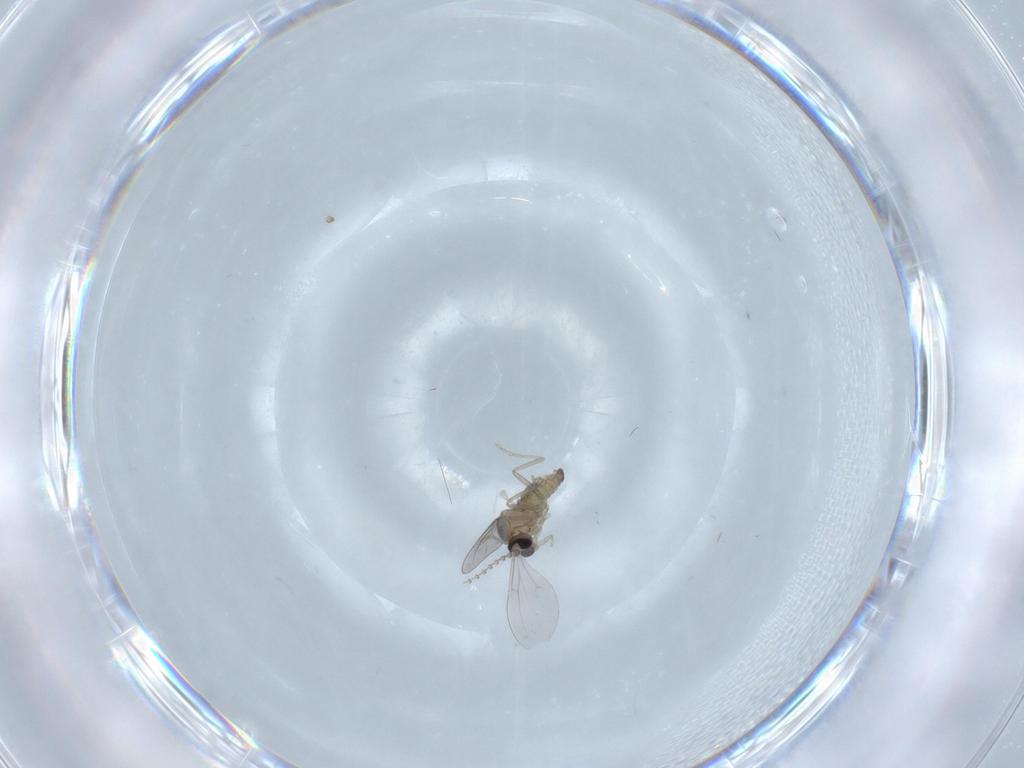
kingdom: Animalia
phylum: Arthropoda
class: Insecta
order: Diptera
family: Cecidomyiidae
